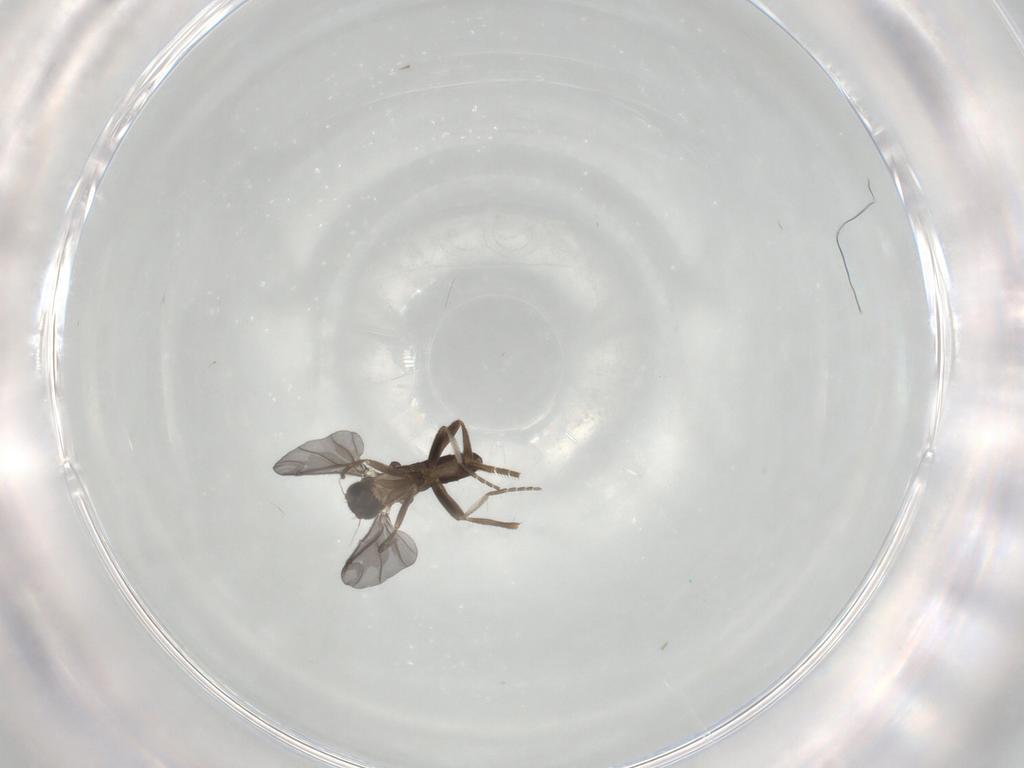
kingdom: Animalia
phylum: Arthropoda
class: Insecta
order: Diptera
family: Phoridae
